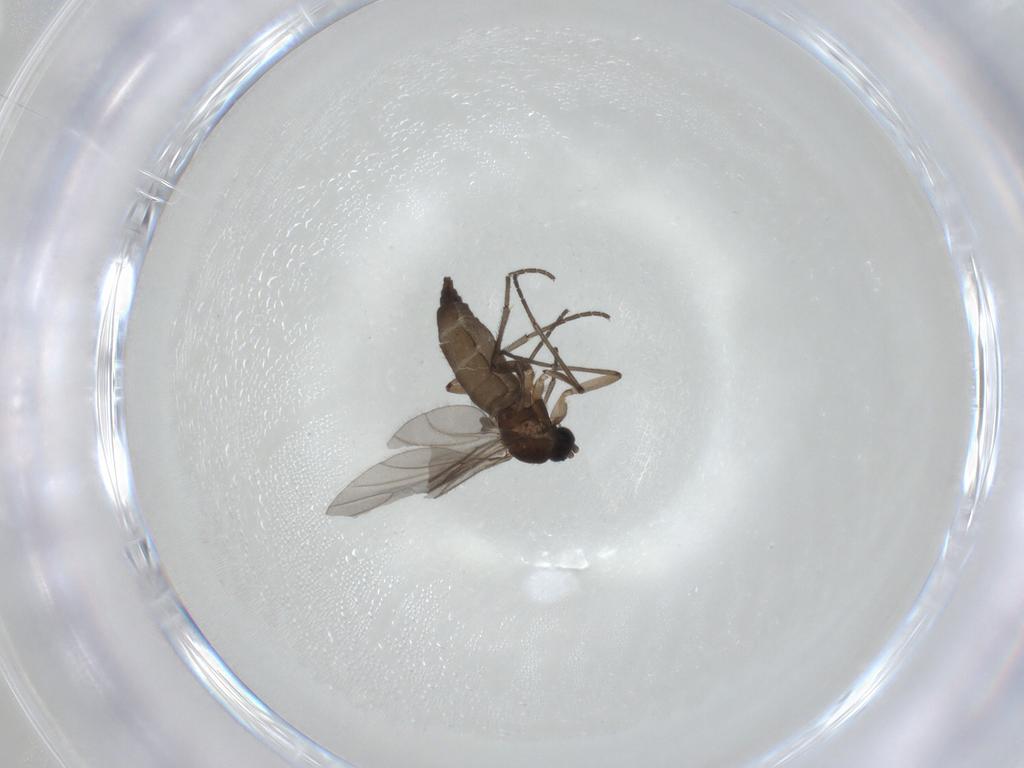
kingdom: Animalia
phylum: Arthropoda
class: Insecta
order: Diptera
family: Sciaridae
